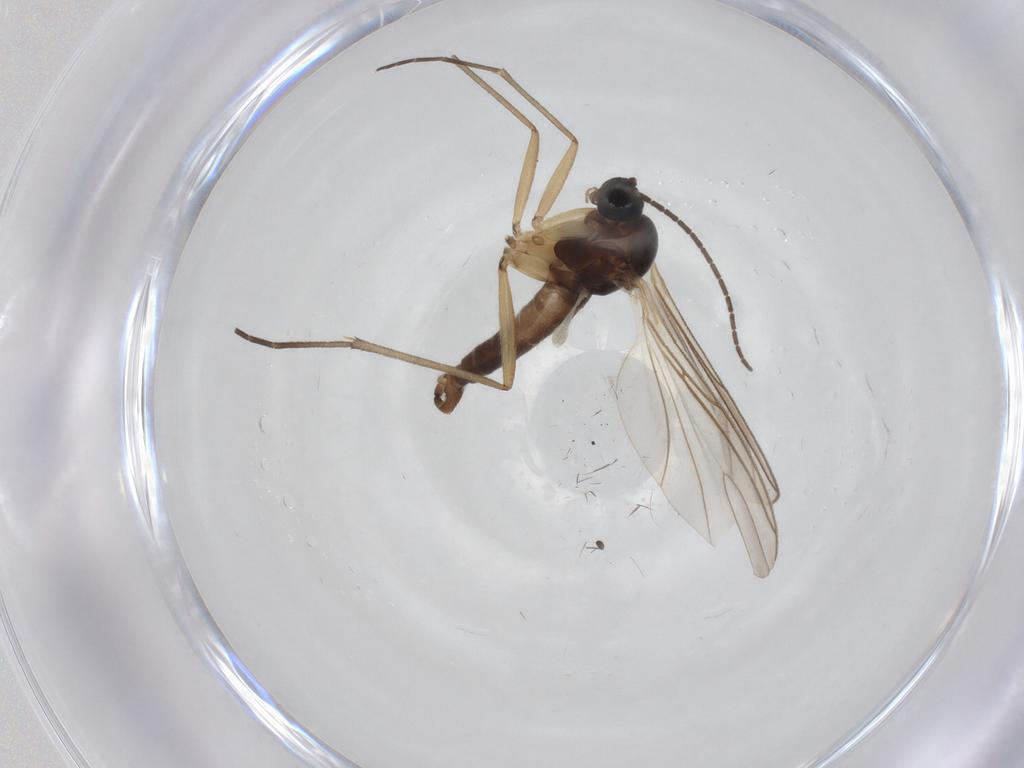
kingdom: Animalia
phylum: Arthropoda
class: Insecta
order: Diptera
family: Sciaridae
